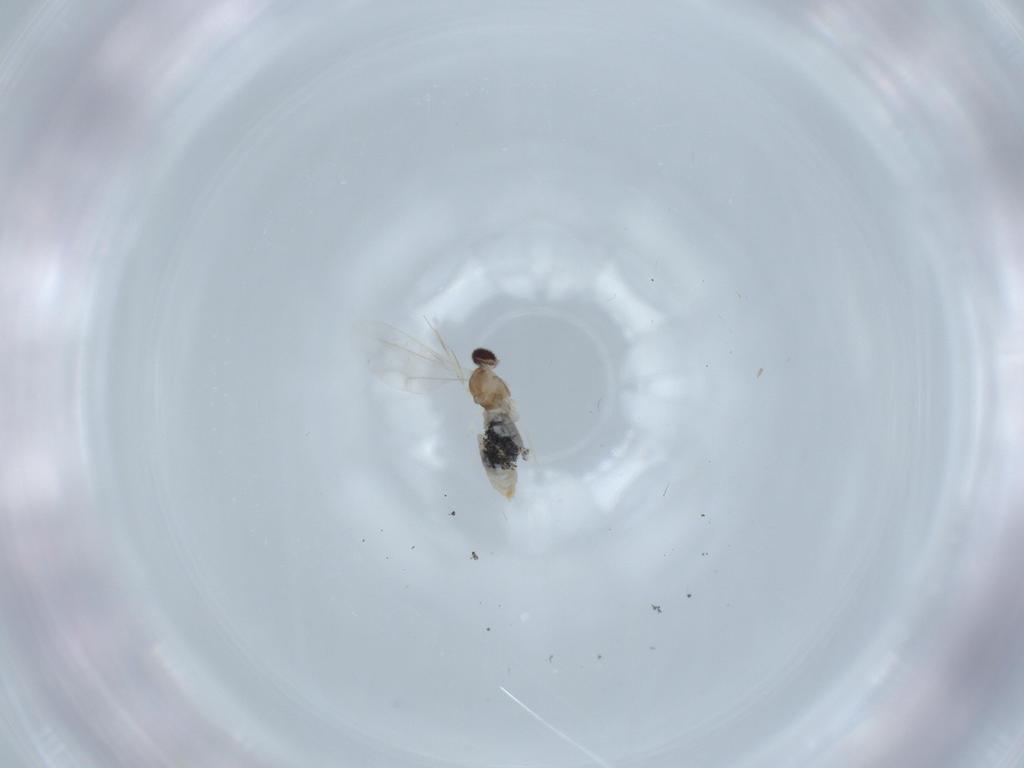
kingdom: Animalia
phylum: Arthropoda
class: Insecta
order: Diptera
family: Cecidomyiidae
